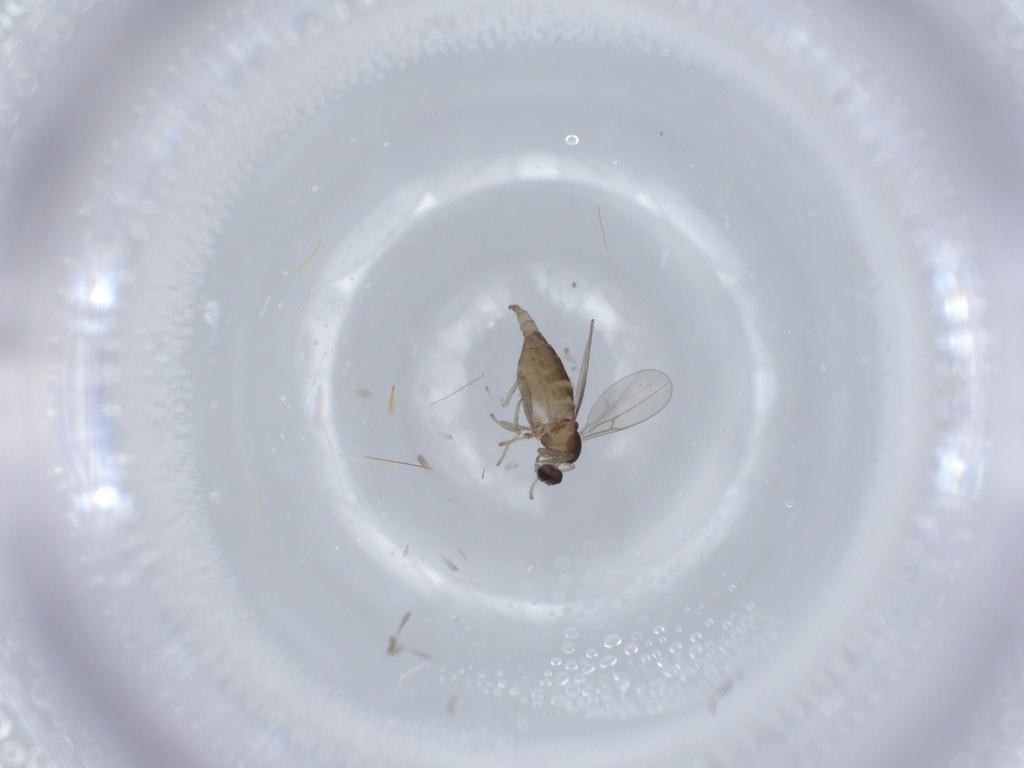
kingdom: Animalia
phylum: Arthropoda
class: Insecta
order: Diptera
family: Cecidomyiidae
